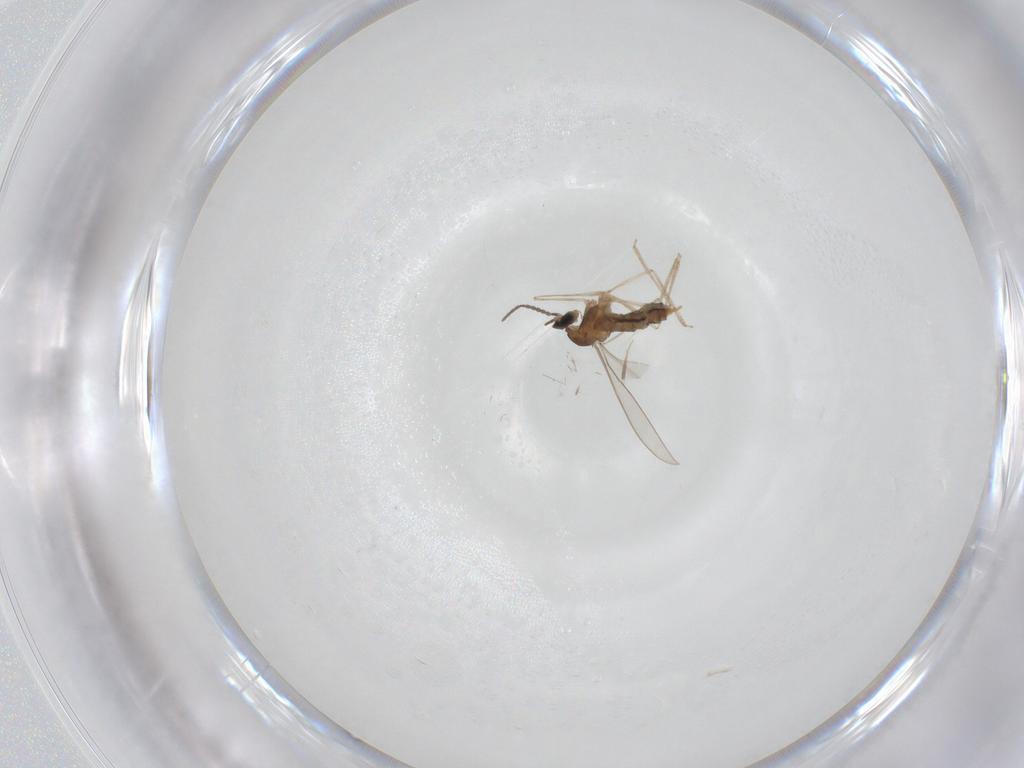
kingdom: Animalia
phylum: Arthropoda
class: Insecta
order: Diptera
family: Cecidomyiidae
